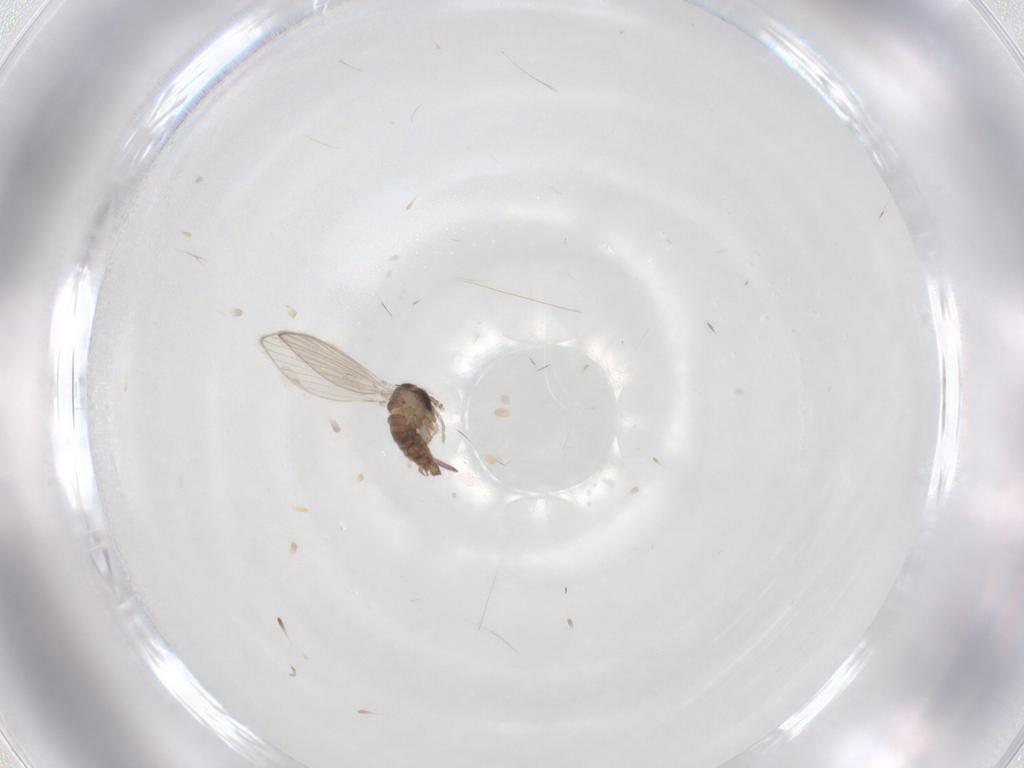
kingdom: Animalia
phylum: Arthropoda
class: Insecta
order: Diptera
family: Psychodidae
